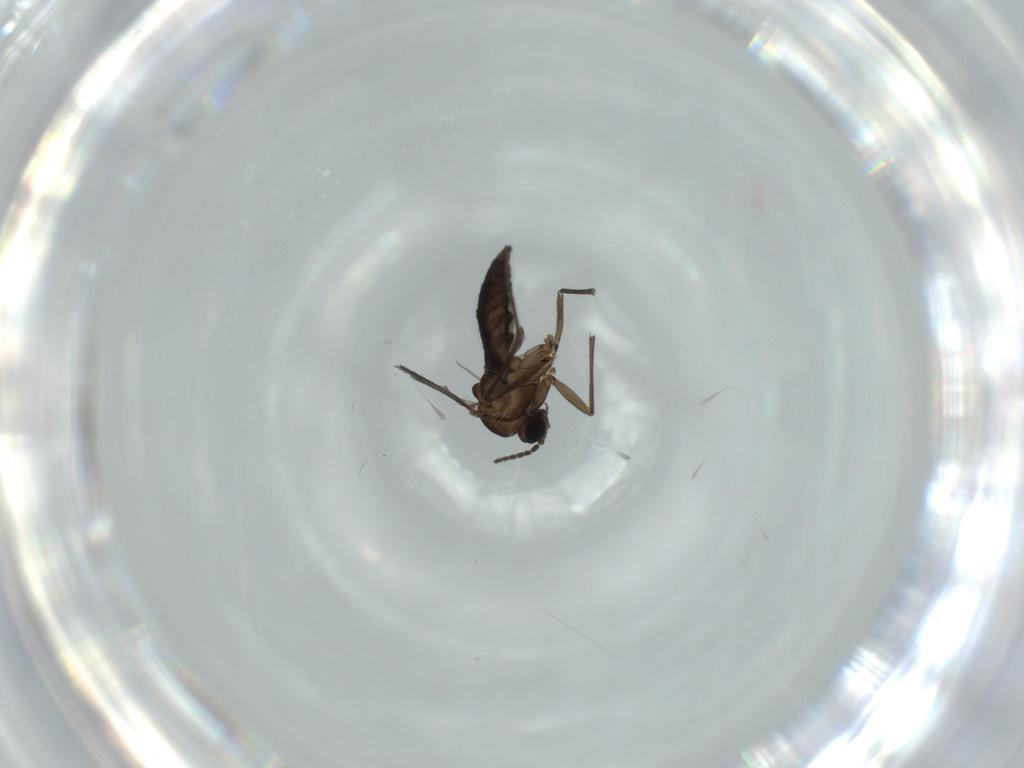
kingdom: Animalia
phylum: Arthropoda
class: Insecta
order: Diptera
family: Sciaridae
